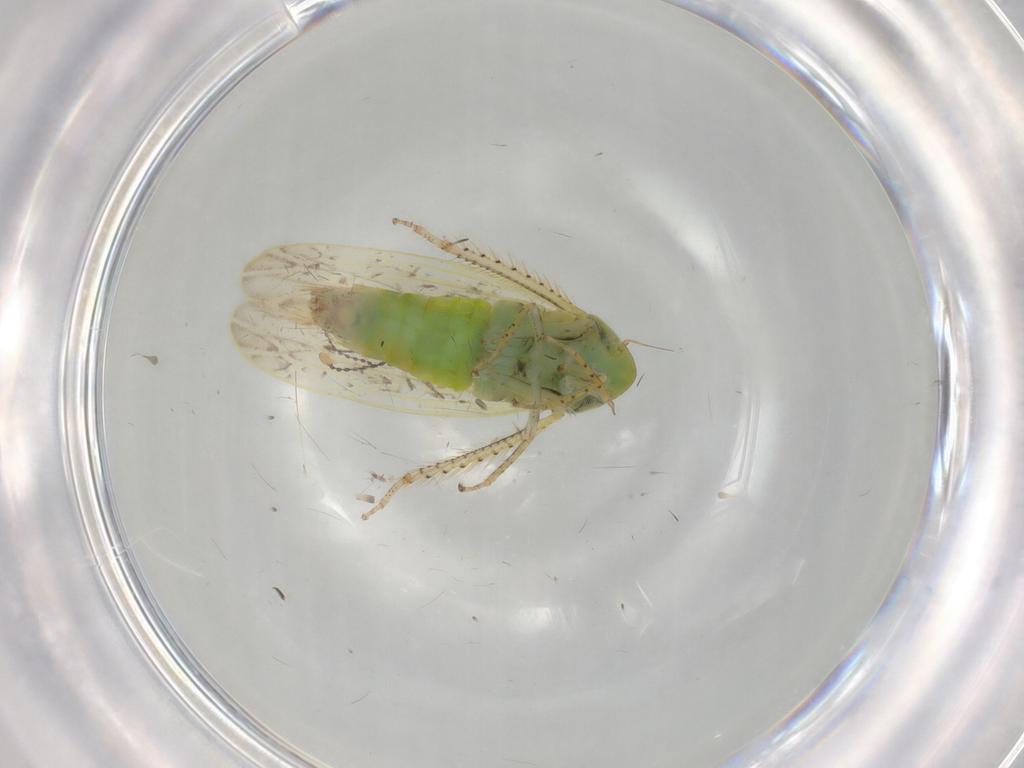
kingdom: Animalia
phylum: Arthropoda
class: Insecta
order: Hemiptera
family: Cicadellidae
